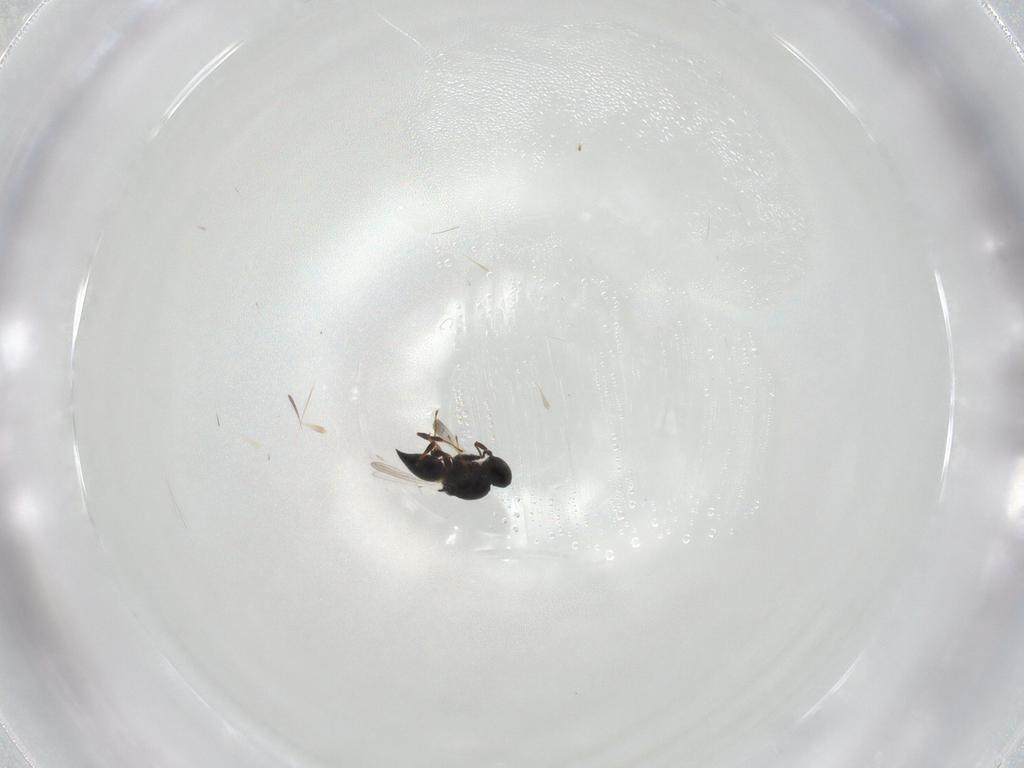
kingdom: Animalia
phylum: Arthropoda
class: Insecta
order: Hymenoptera
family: Platygastridae
